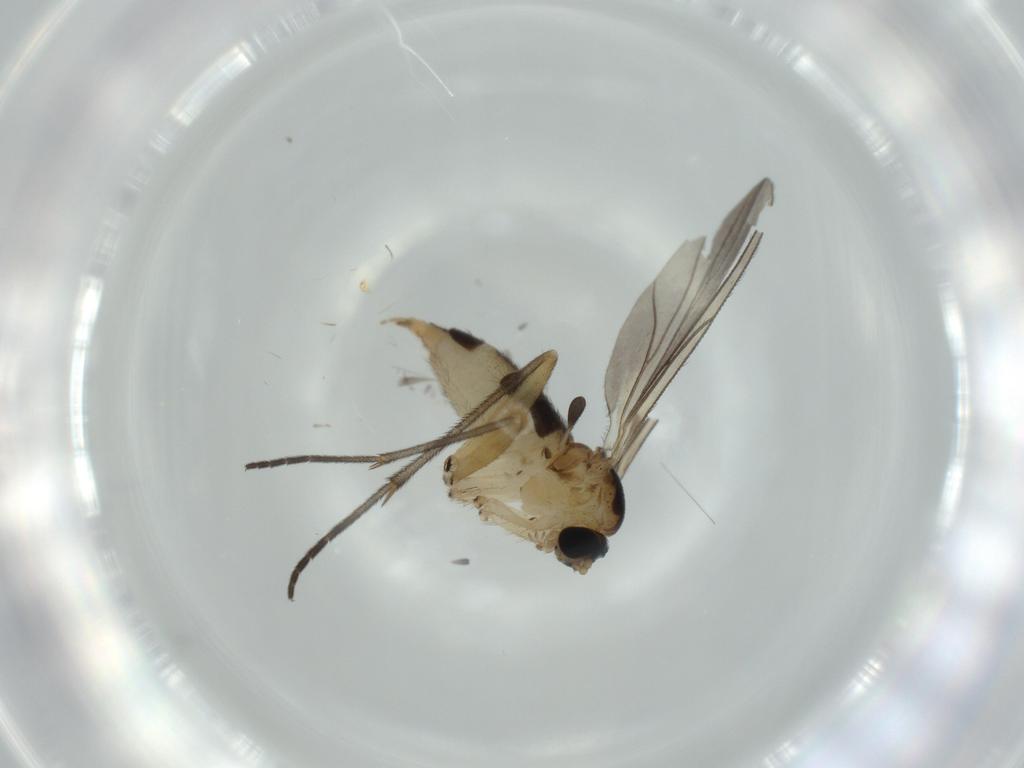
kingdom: Animalia
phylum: Arthropoda
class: Insecta
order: Diptera
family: Sciaridae
